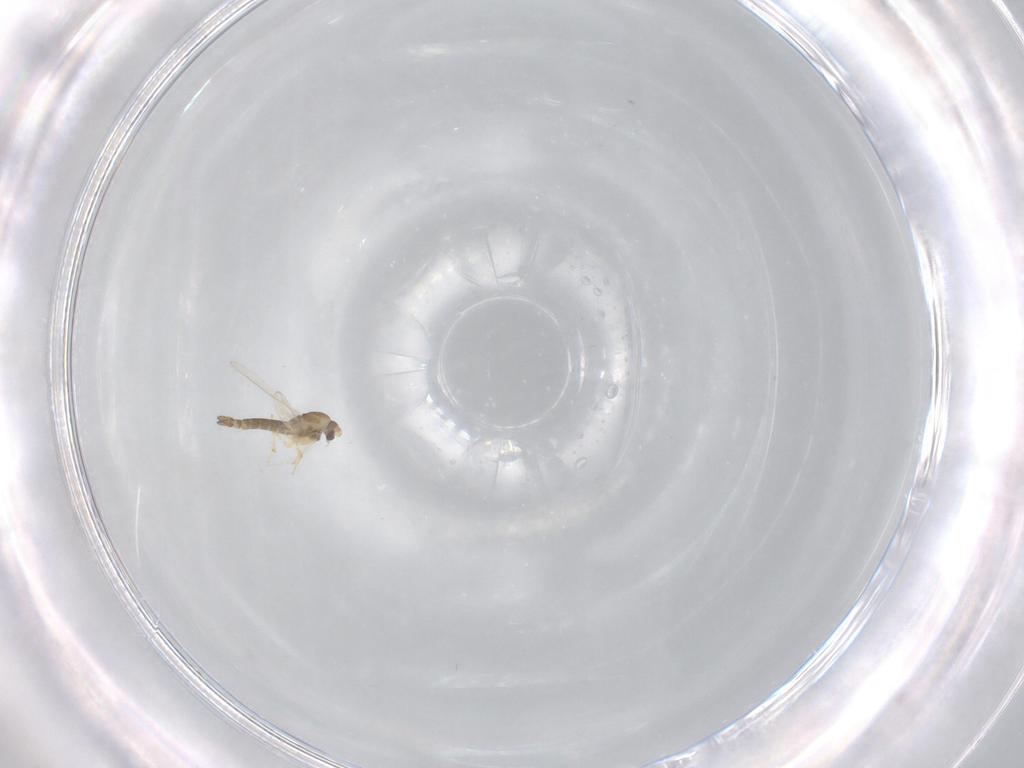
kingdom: Animalia
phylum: Arthropoda
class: Insecta
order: Diptera
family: Chironomidae
